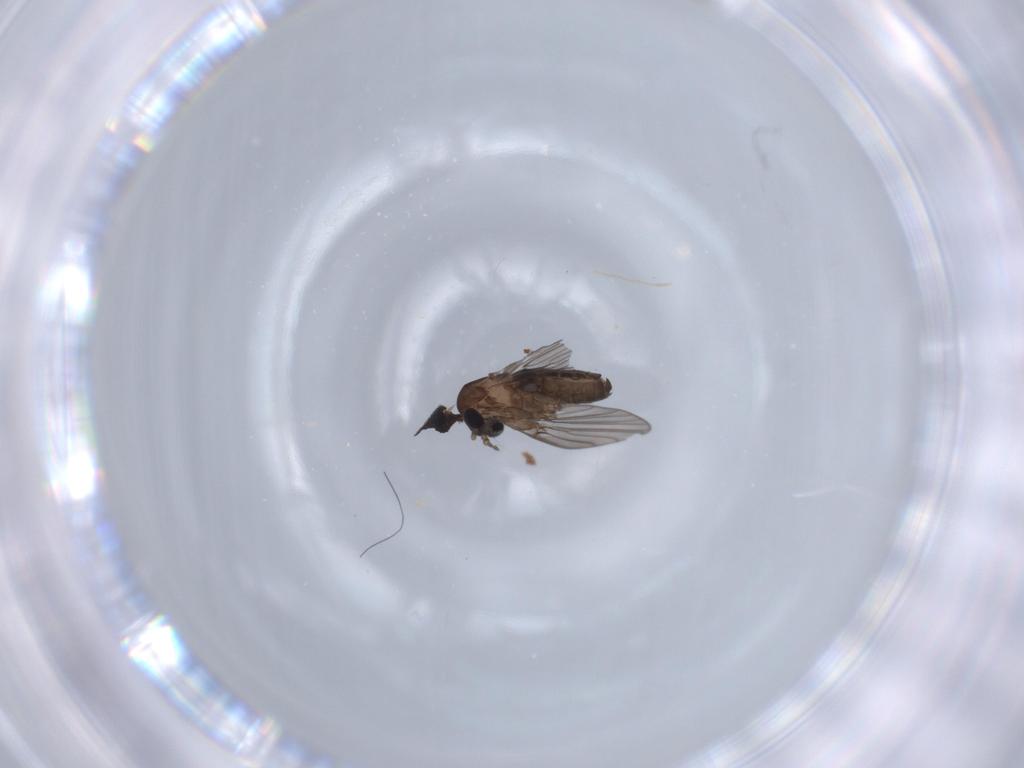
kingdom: Animalia
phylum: Arthropoda
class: Insecta
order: Diptera
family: Psychodidae
